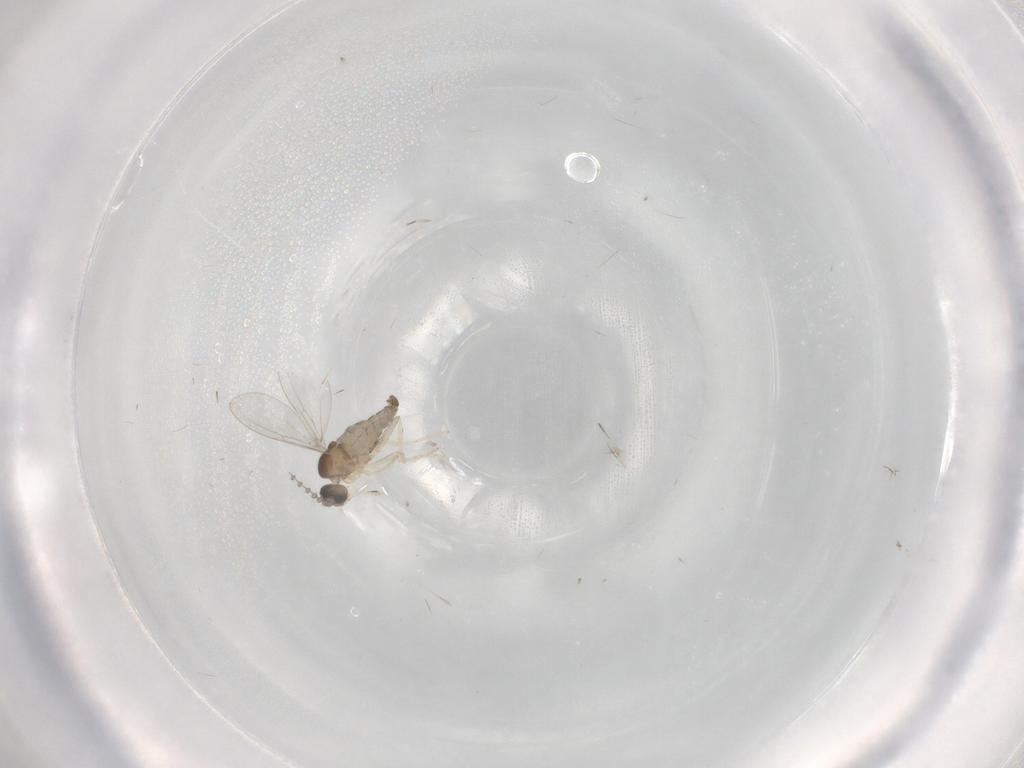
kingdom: Animalia
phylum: Arthropoda
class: Insecta
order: Diptera
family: Cecidomyiidae
